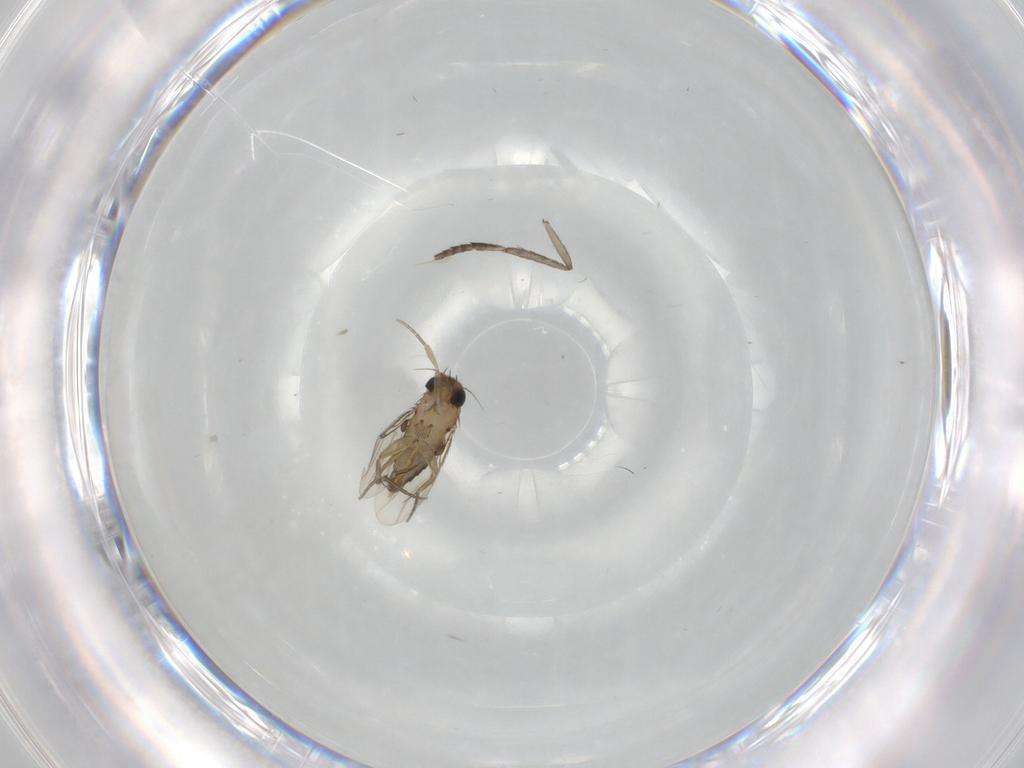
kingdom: Animalia
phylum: Arthropoda
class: Insecta
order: Diptera
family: Phoridae
